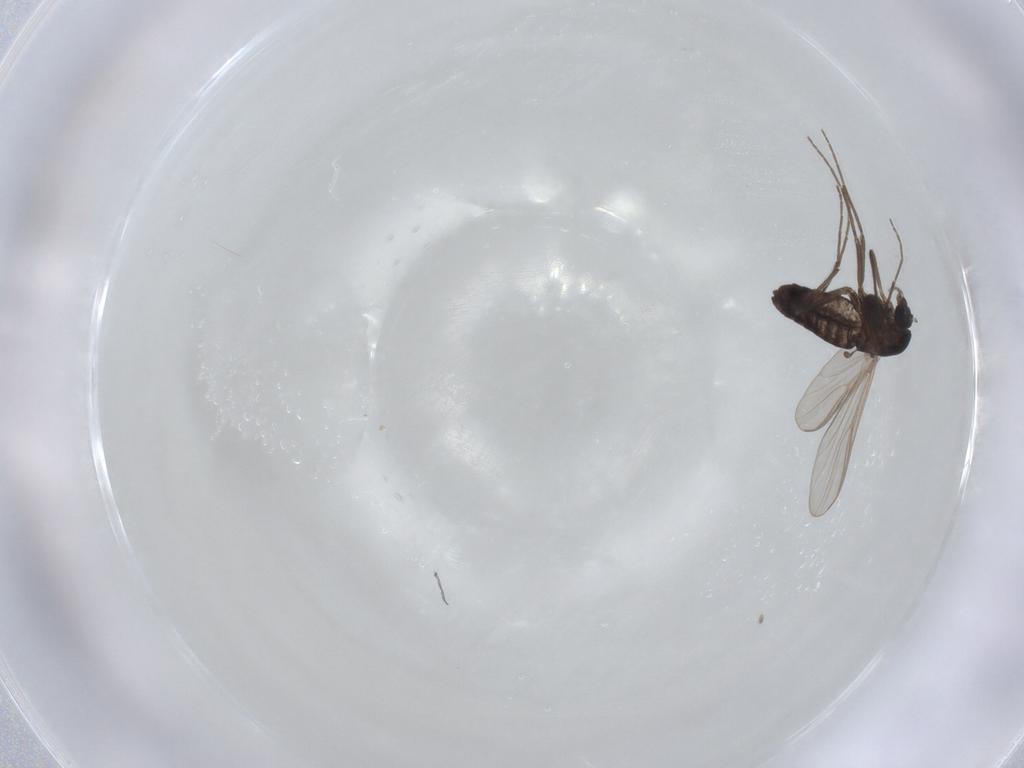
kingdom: Animalia
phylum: Arthropoda
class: Insecta
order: Diptera
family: Chironomidae
